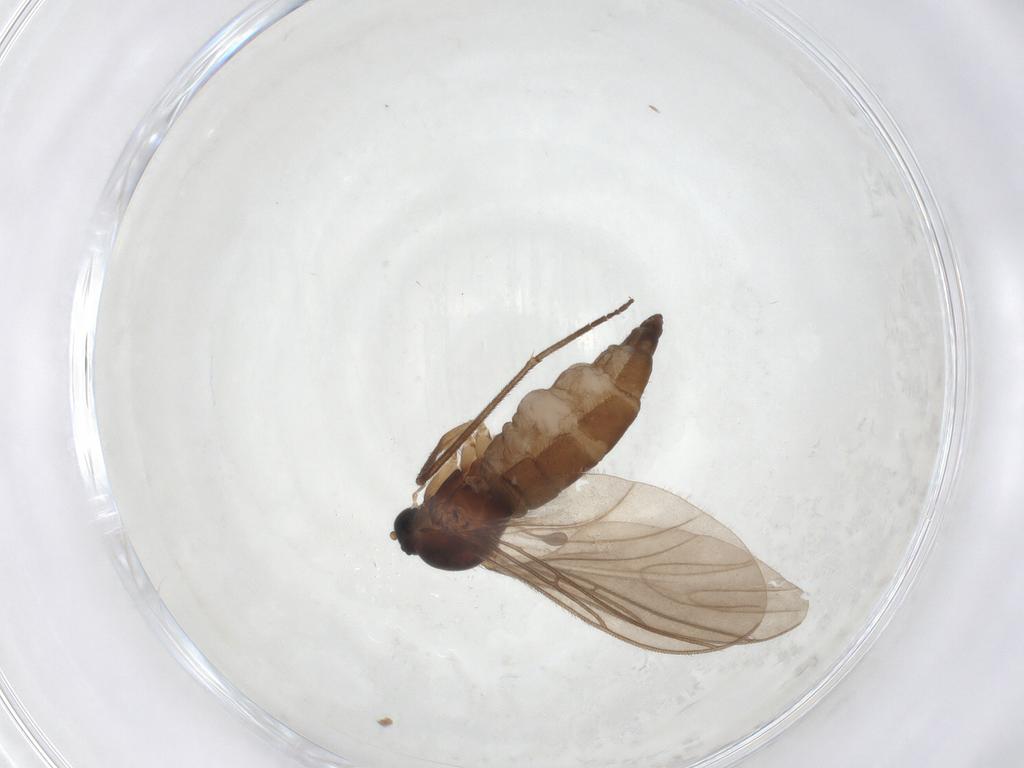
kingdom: Animalia
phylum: Arthropoda
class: Insecta
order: Diptera
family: Sciaridae
